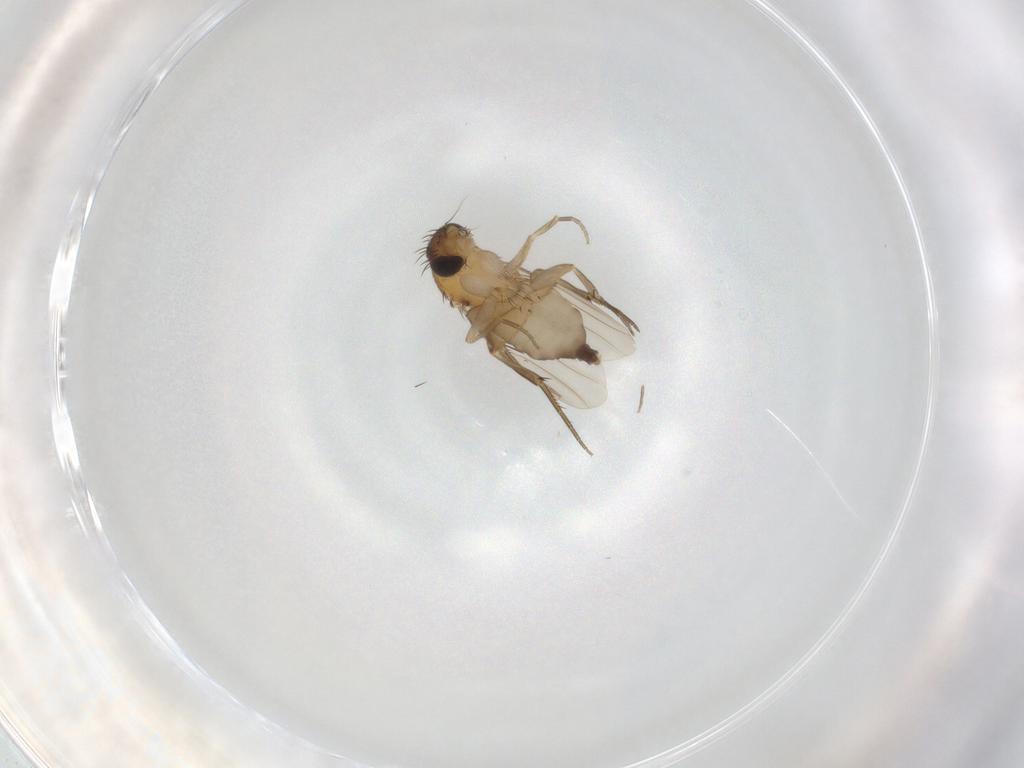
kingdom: Animalia
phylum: Arthropoda
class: Insecta
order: Diptera
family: Phoridae
